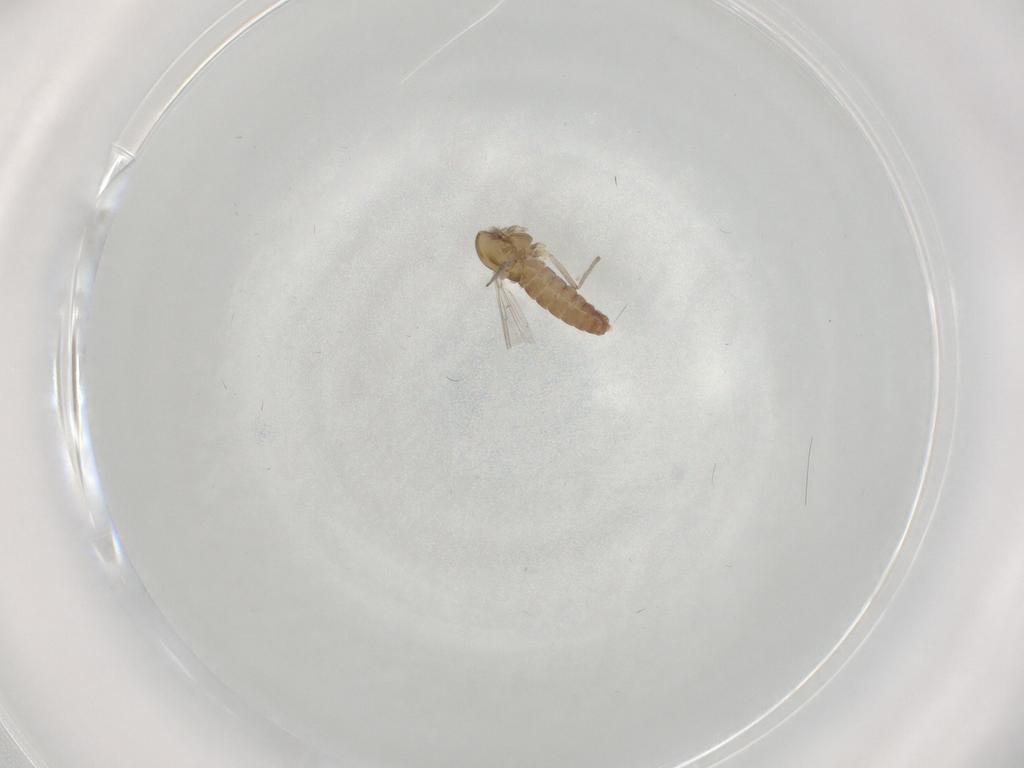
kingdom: Animalia
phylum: Arthropoda
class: Insecta
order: Diptera
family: Chironomidae
